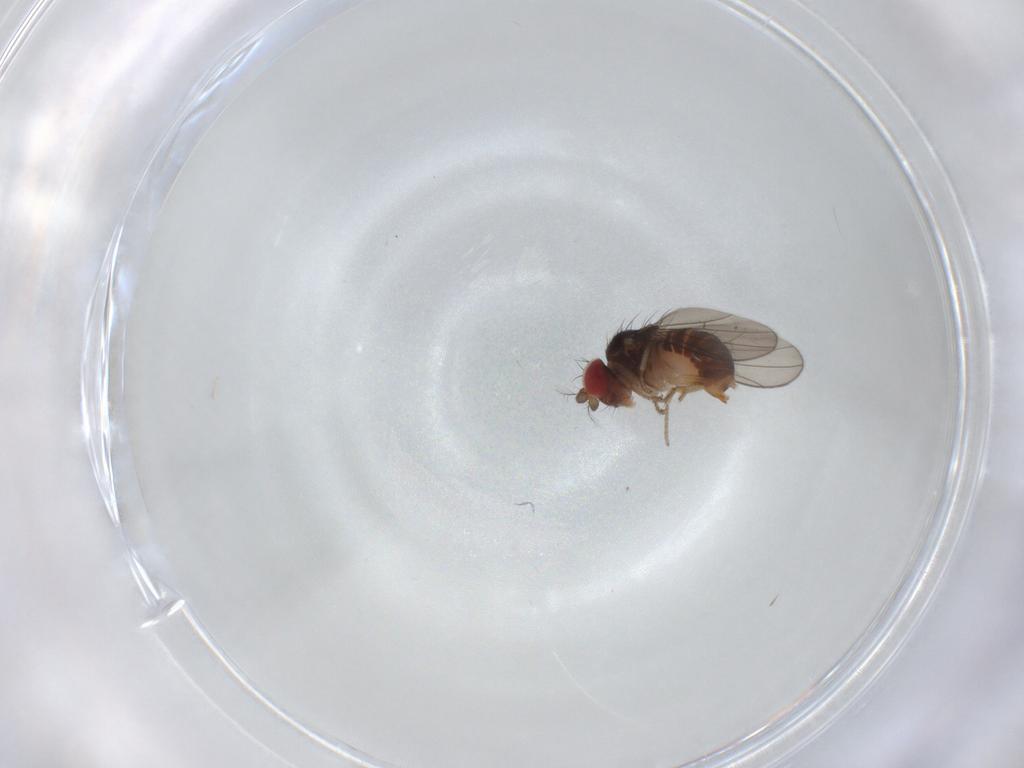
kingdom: Animalia
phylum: Arthropoda
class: Insecta
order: Diptera
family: Drosophilidae
